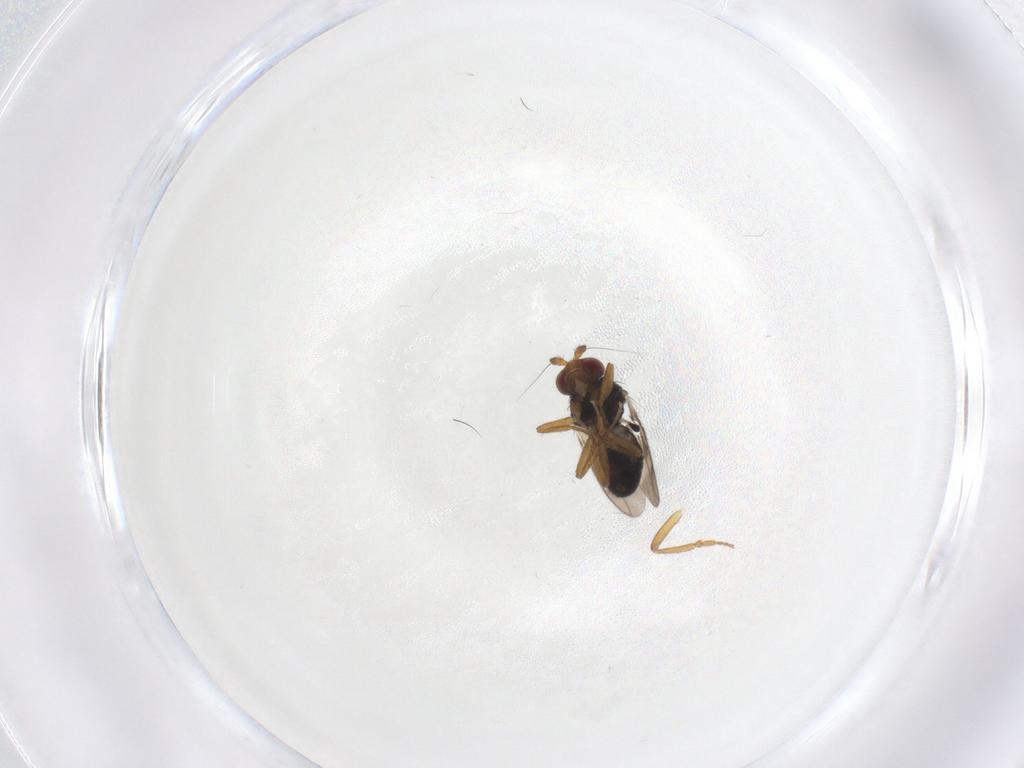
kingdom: Animalia
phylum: Arthropoda
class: Insecta
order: Diptera
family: Sphaeroceridae
